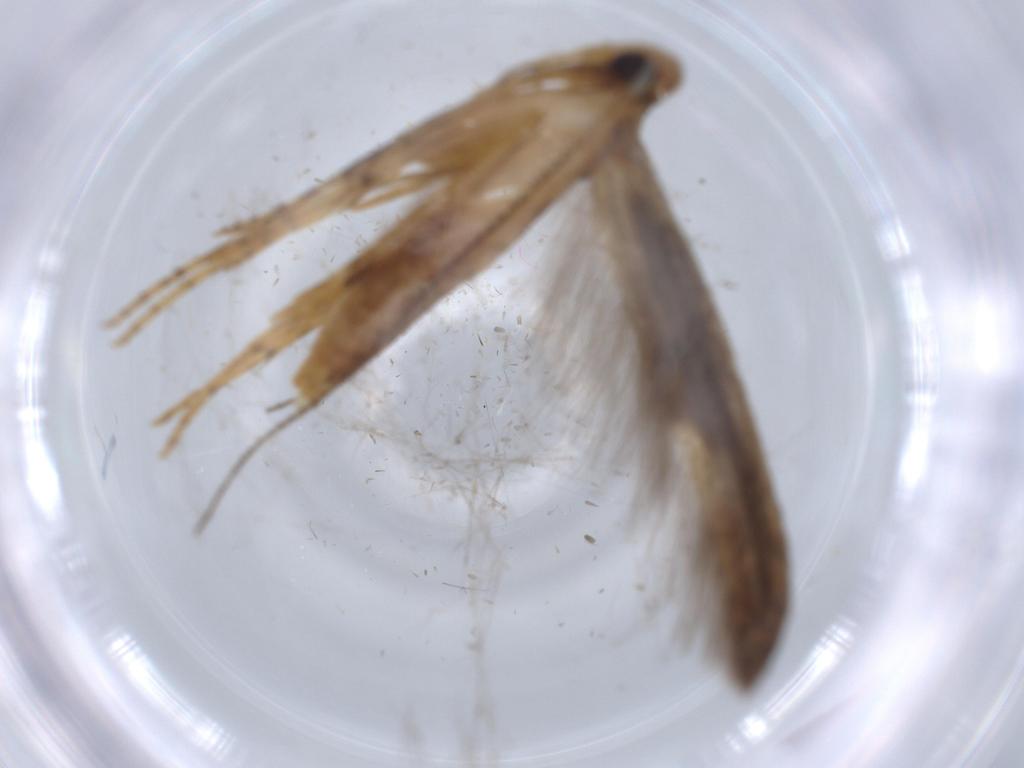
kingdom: Animalia
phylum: Arthropoda
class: Insecta
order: Lepidoptera
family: Heliodinidae
